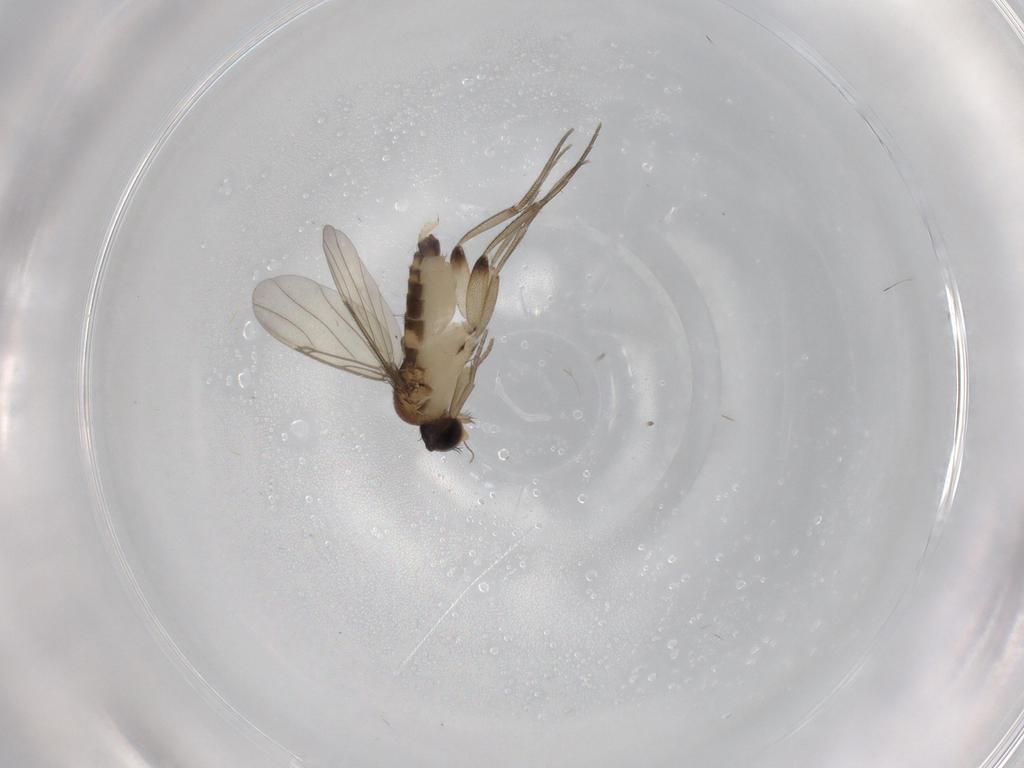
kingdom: Animalia
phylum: Arthropoda
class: Insecta
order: Diptera
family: Phoridae
